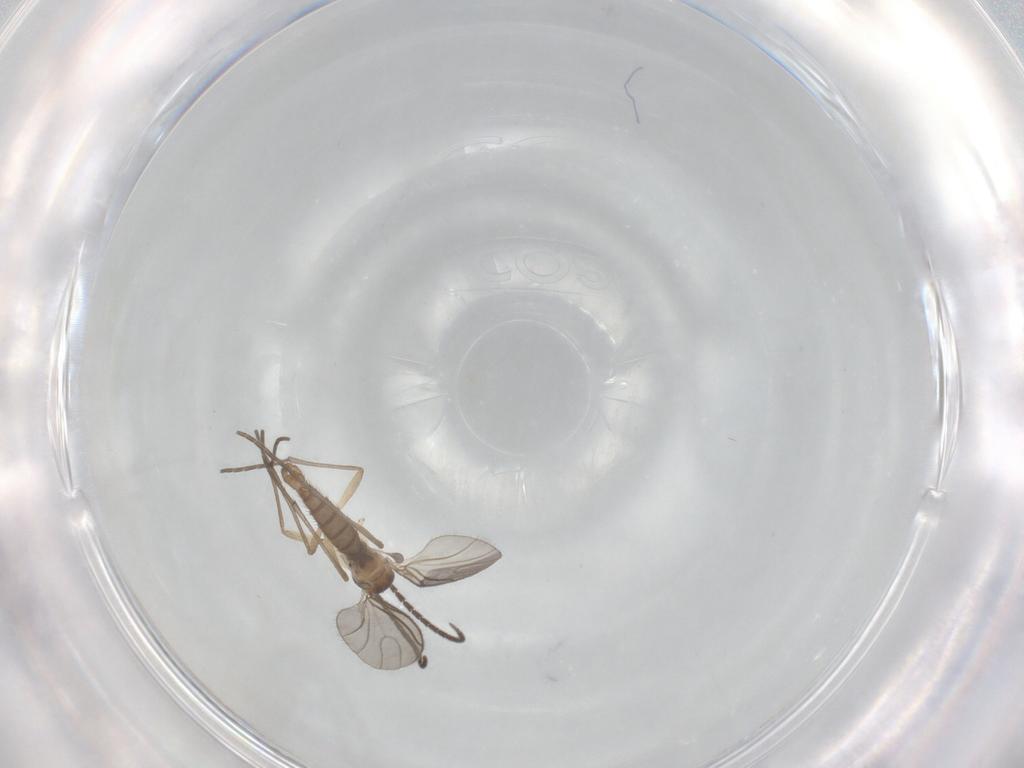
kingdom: Animalia
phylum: Arthropoda
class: Insecta
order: Diptera
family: Sciaridae
